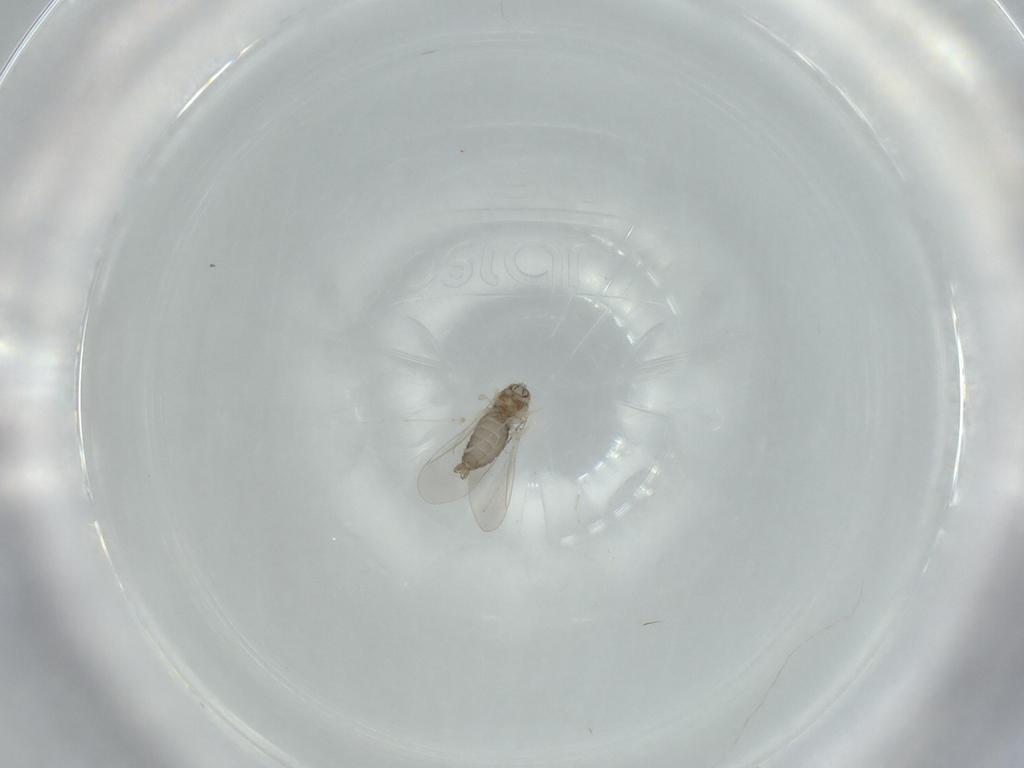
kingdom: Animalia
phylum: Arthropoda
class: Insecta
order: Diptera
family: Cecidomyiidae
